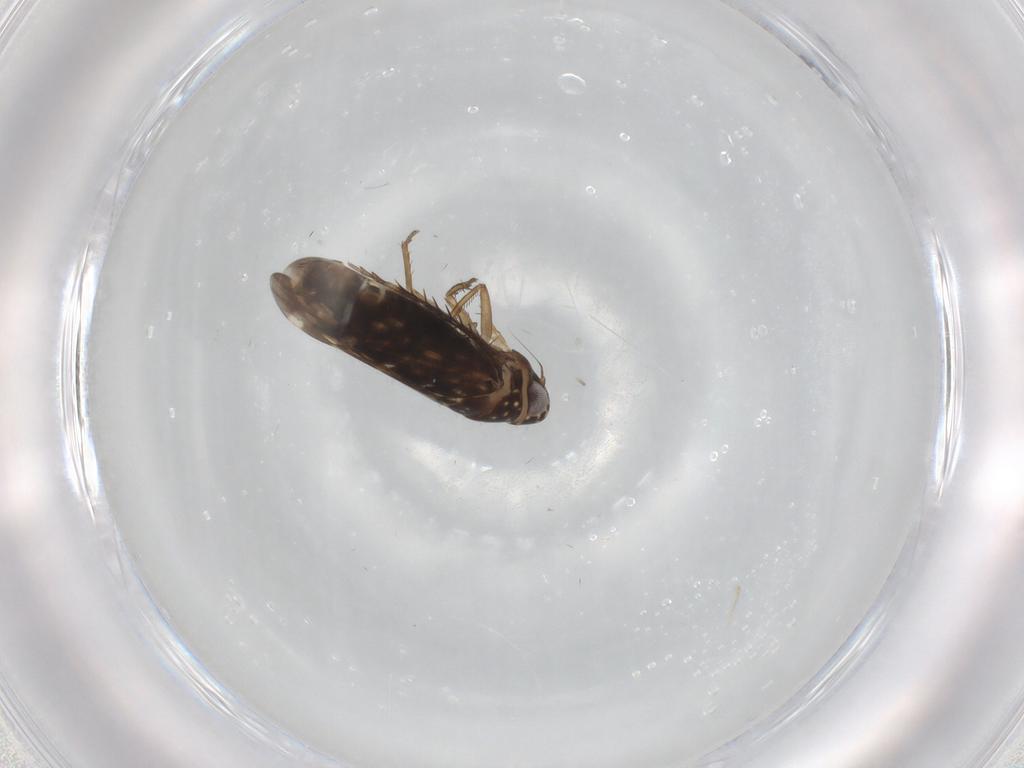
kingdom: Animalia
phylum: Arthropoda
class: Insecta
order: Hemiptera
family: Cicadellidae
